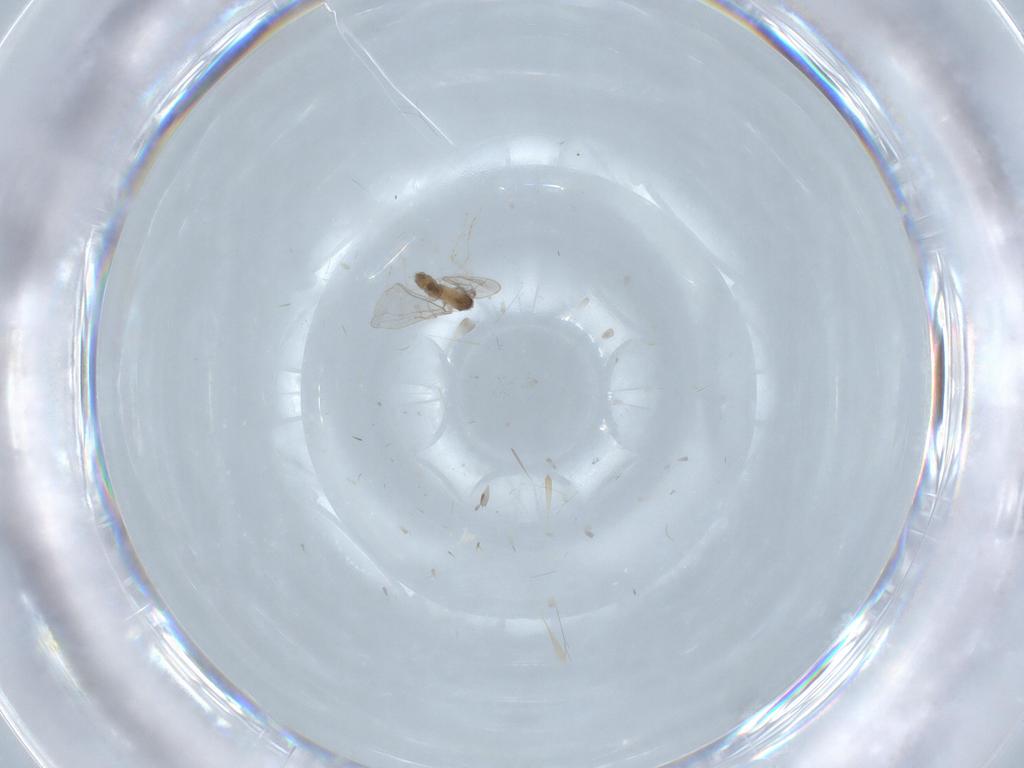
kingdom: Animalia
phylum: Arthropoda
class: Insecta
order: Diptera
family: Phoridae
